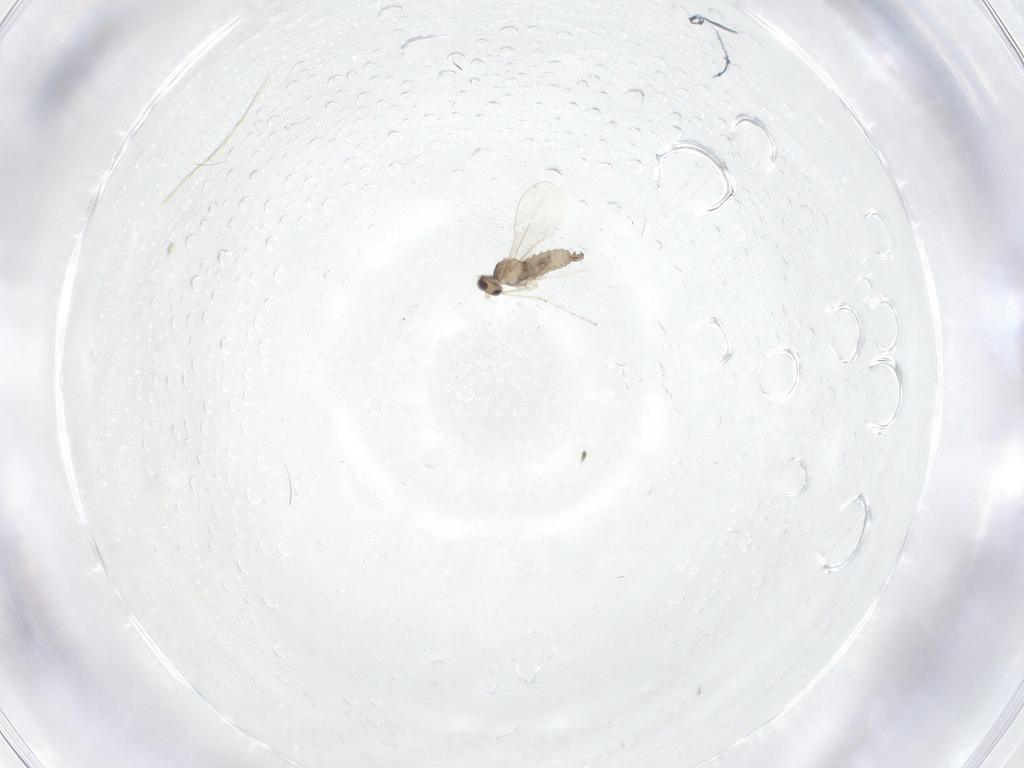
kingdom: Animalia
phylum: Arthropoda
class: Insecta
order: Diptera
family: Cecidomyiidae
